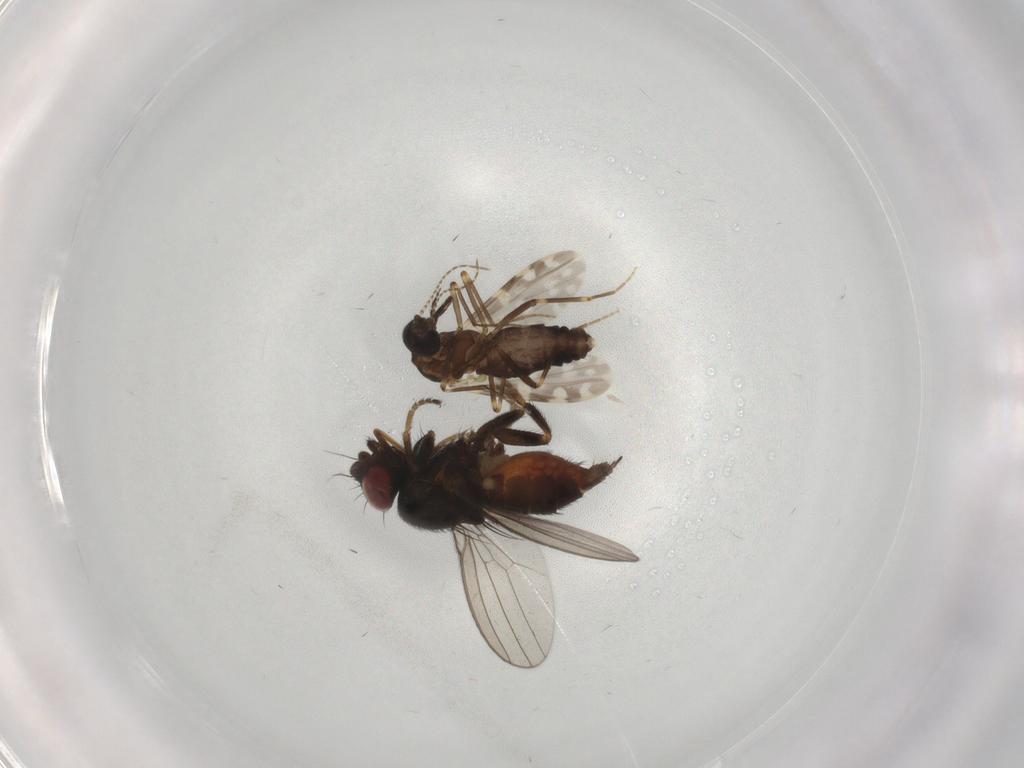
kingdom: Animalia
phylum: Arthropoda
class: Insecta
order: Diptera
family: Milichiidae
